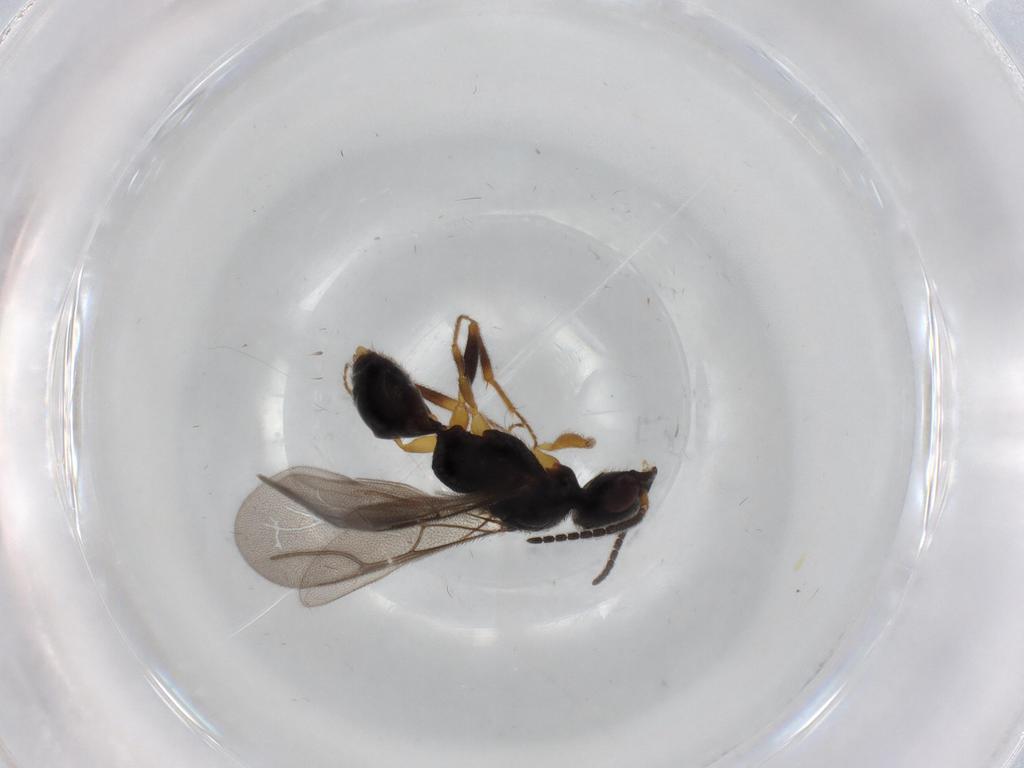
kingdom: Animalia
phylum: Arthropoda
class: Insecta
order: Hymenoptera
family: Bethylidae
